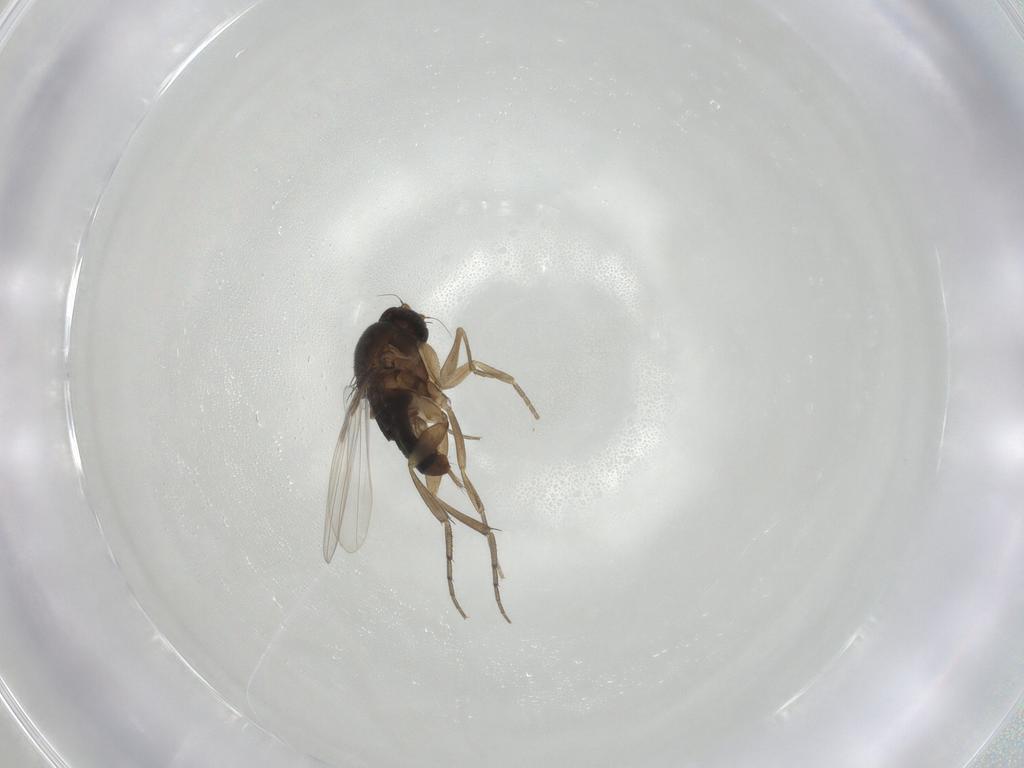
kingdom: Animalia
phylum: Arthropoda
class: Insecta
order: Diptera
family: Phoridae
